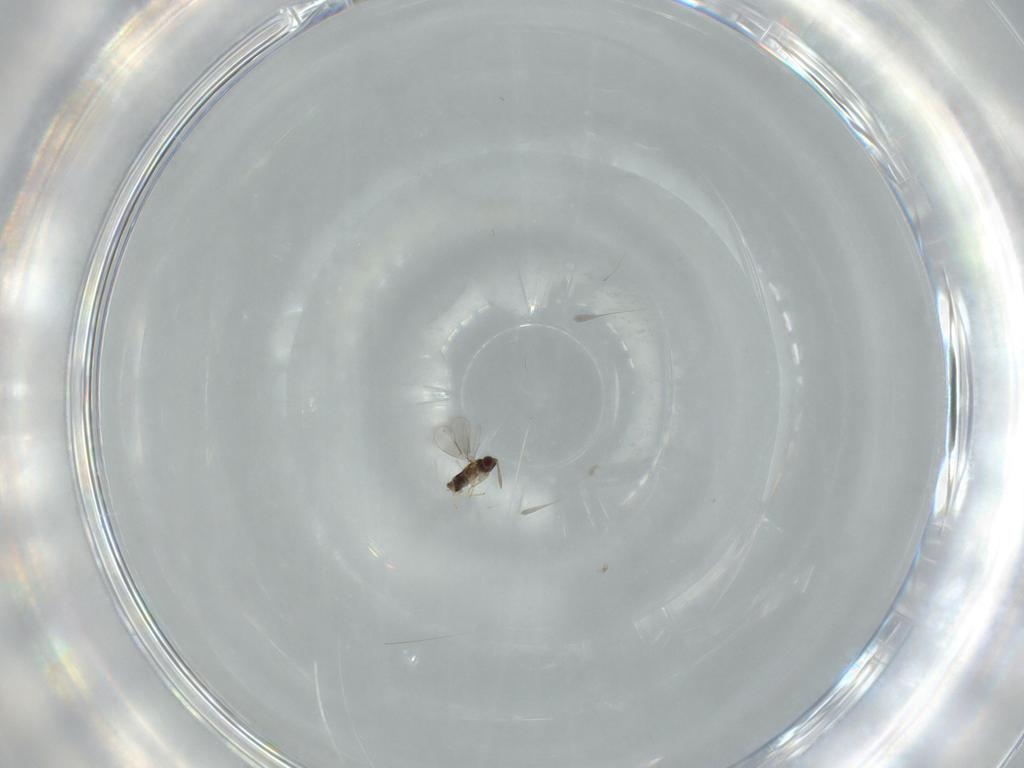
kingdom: Animalia
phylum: Arthropoda
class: Insecta
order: Hymenoptera
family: Aphelinidae
